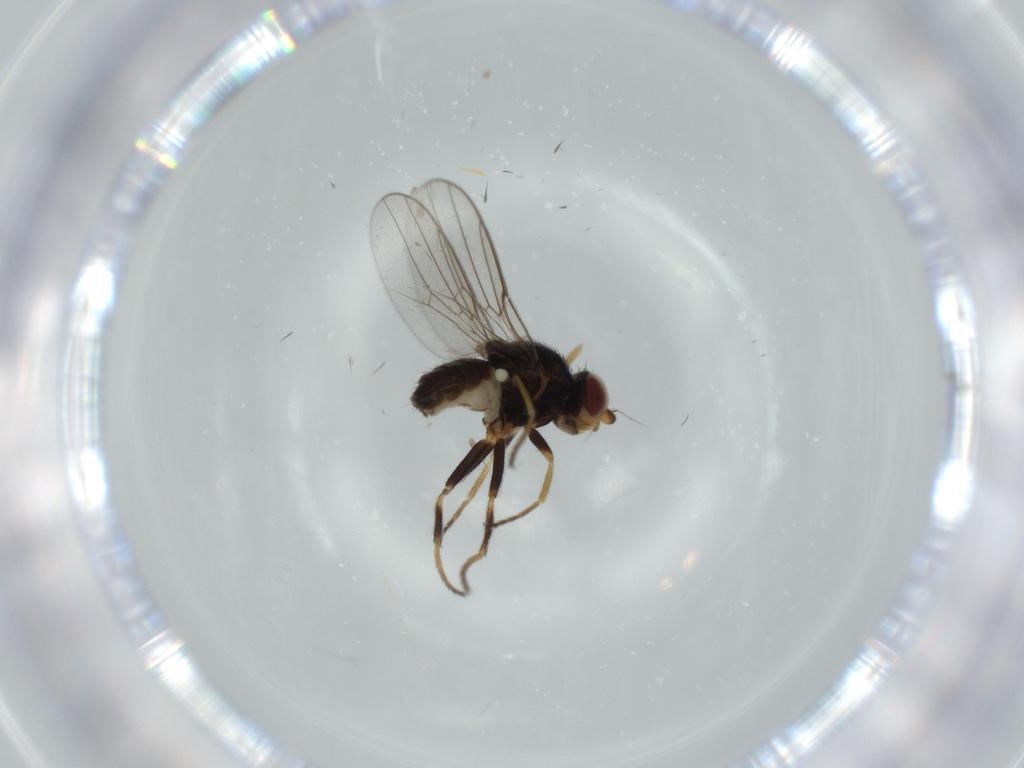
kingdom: Animalia
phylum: Arthropoda
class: Insecta
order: Diptera
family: Chloropidae
